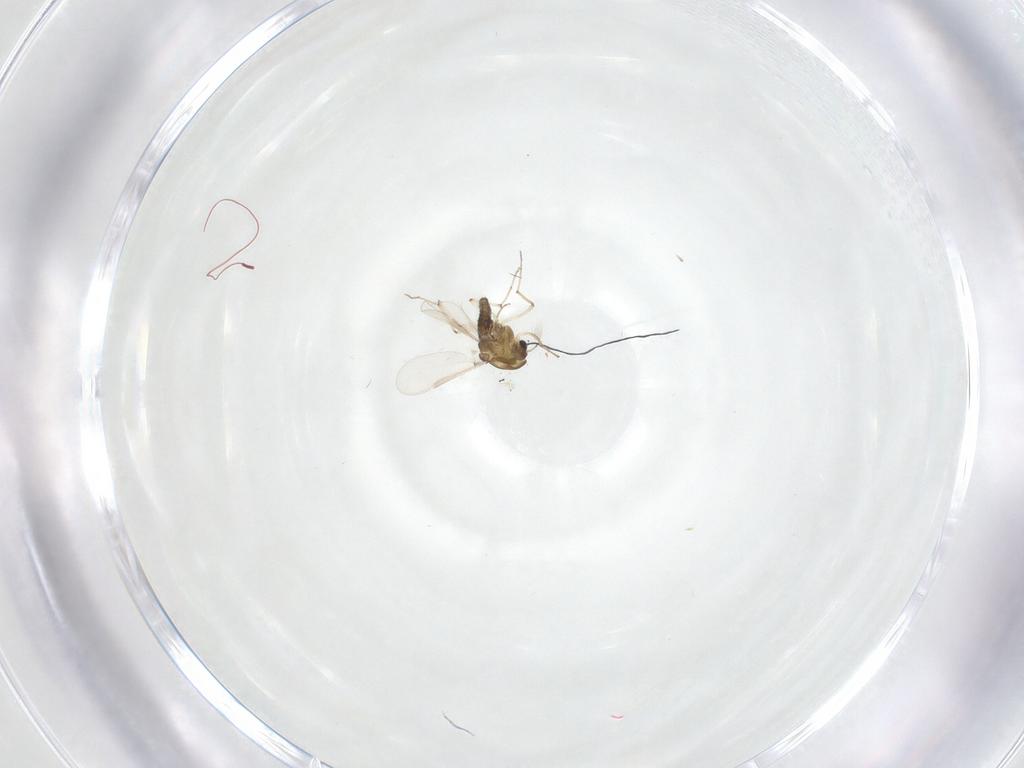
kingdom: Animalia
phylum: Arthropoda
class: Insecta
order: Diptera
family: Chironomidae
